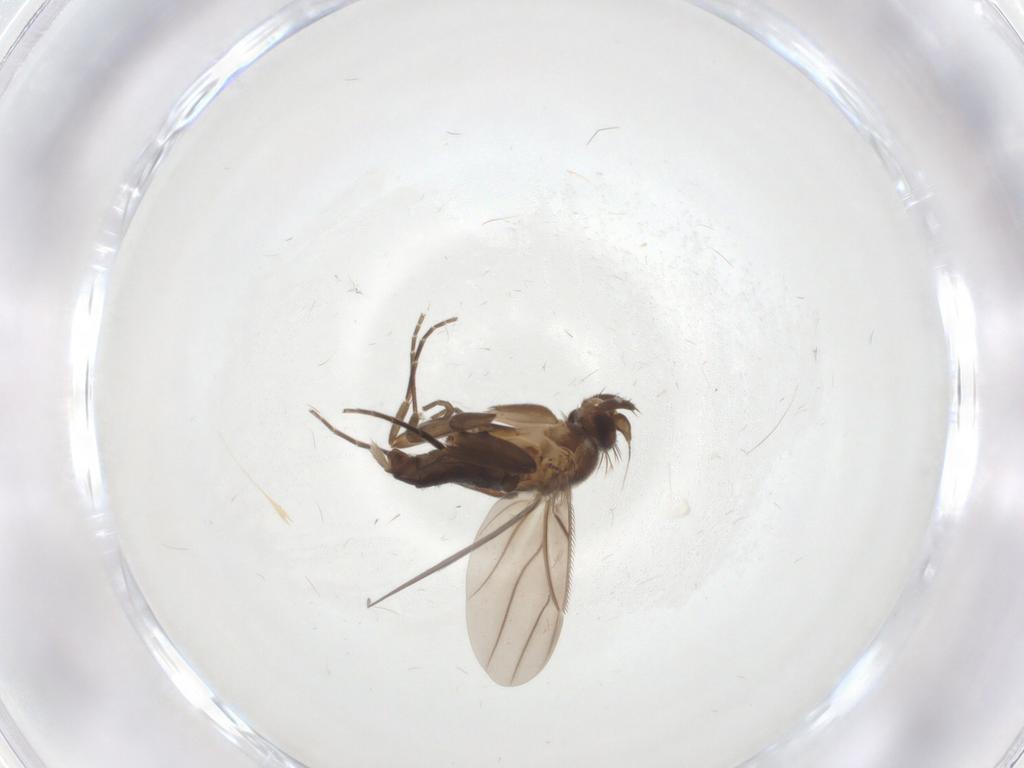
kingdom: Animalia
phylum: Arthropoda
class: Insecta
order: Diptera
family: Phoridae
